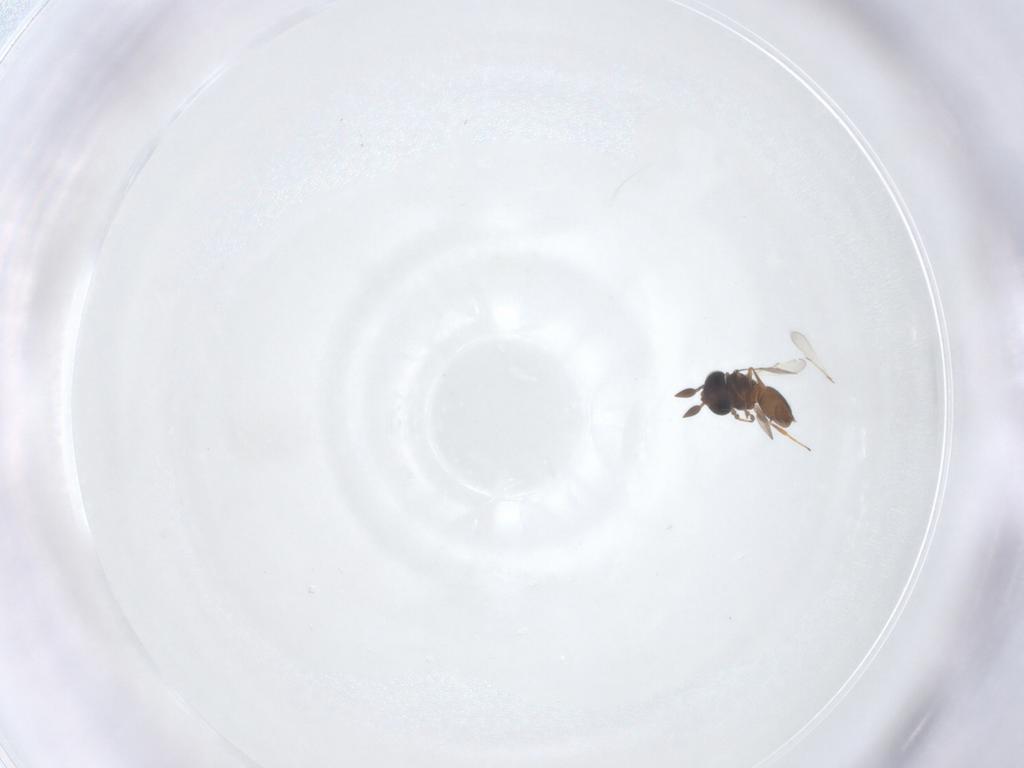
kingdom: Animalia
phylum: Arthropoda
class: Insecta
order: Hymenoptera
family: Scelionidae
